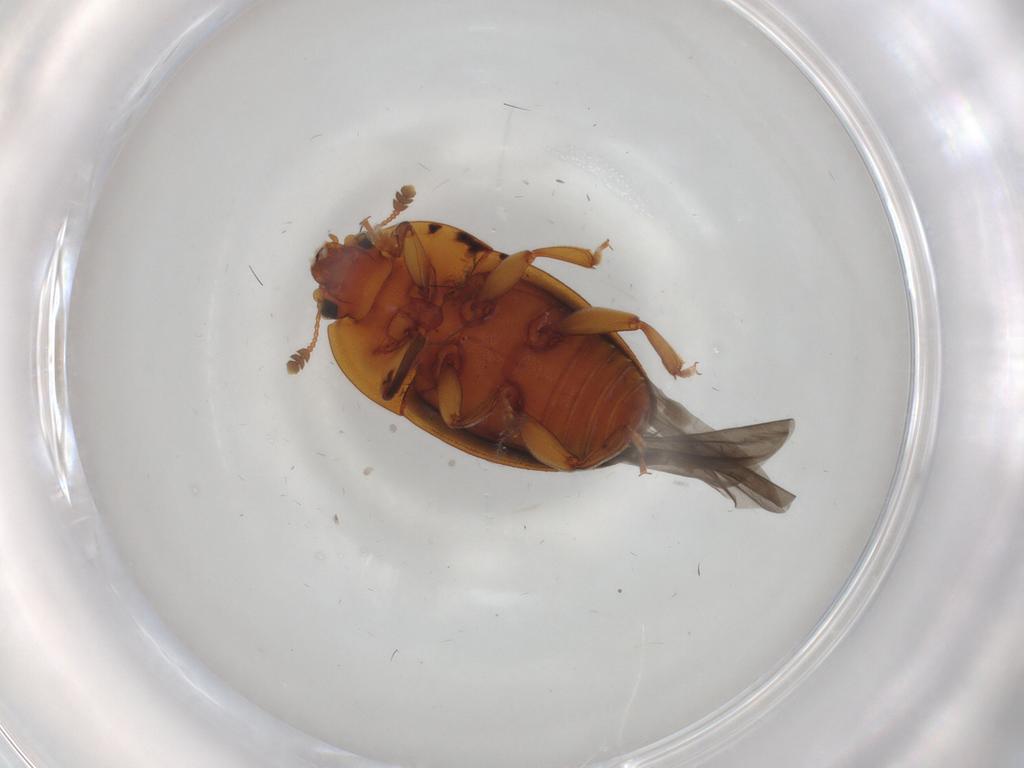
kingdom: Animalia
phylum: Arthropoda
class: Insecta
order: Coleoptera
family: Nitidulidae
